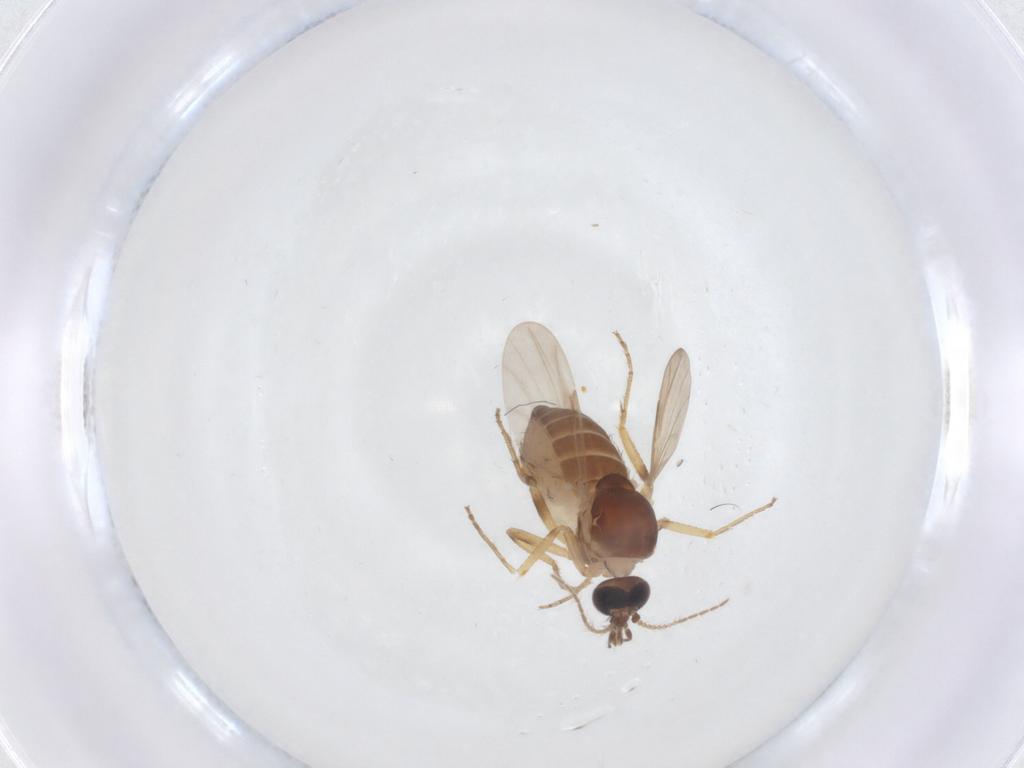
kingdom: Animalia
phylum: Arthropoda
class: Insecta
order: Diptera
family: Ceratopogonidae
